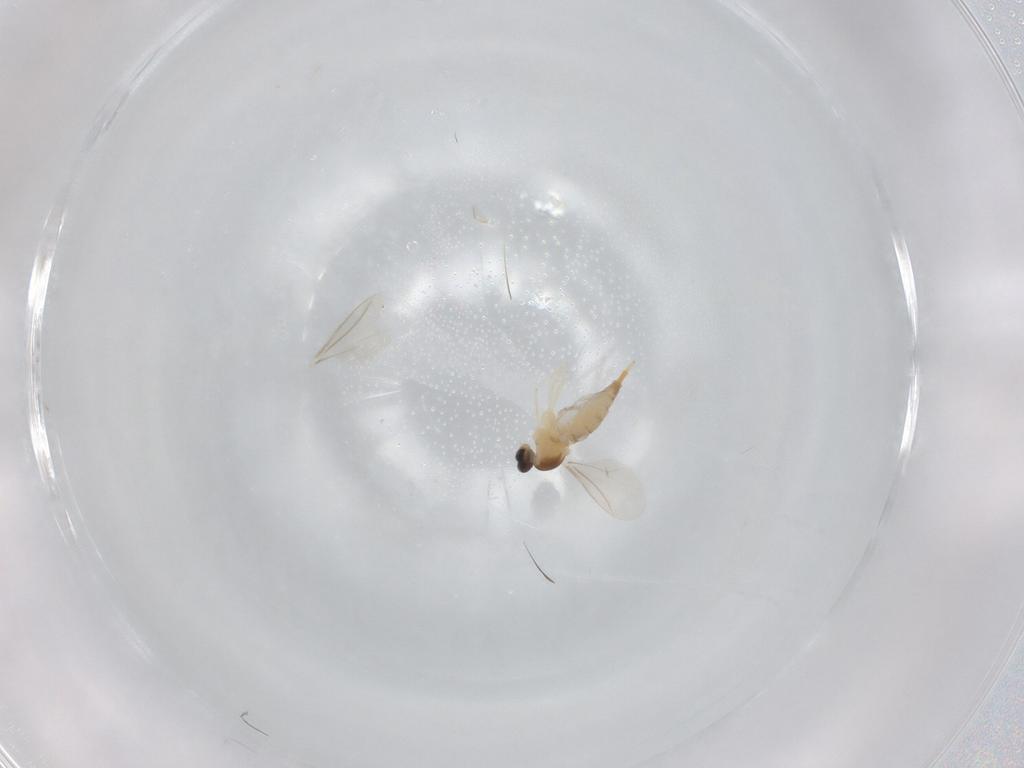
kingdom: Animalia
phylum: Arthropoda
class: Insecta
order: Diptera
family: Cecidomyiidae
